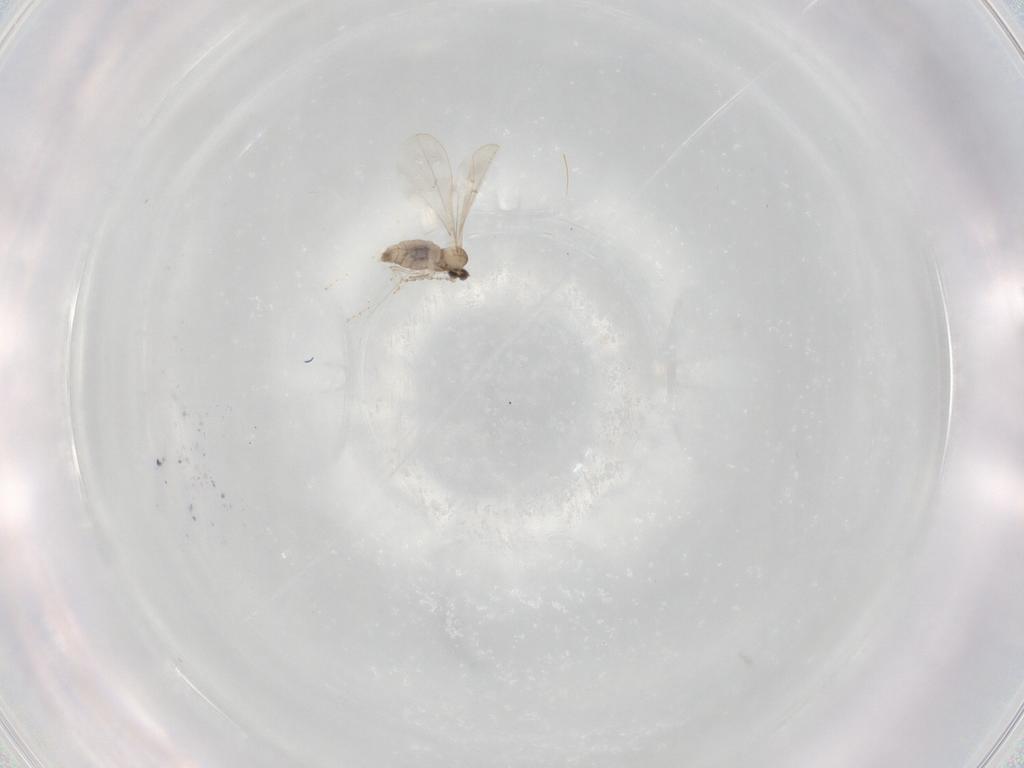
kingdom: Animalia
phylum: Arthropoda
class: Insecta
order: Diptera
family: Cecidomyiidae
